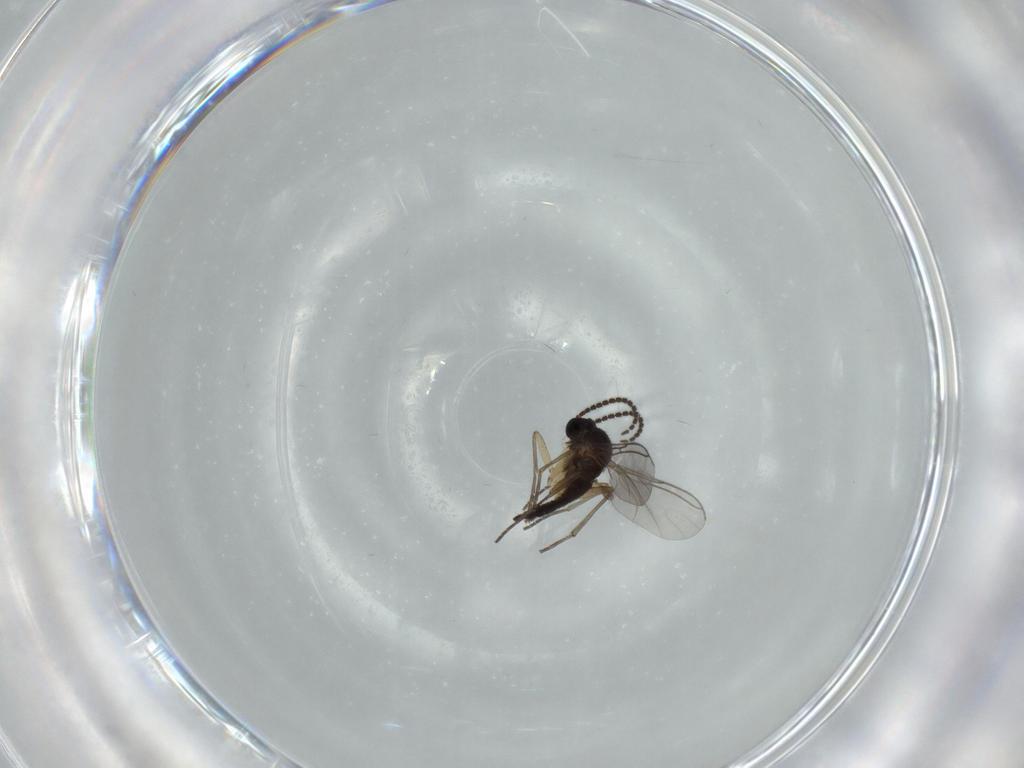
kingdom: Animalia
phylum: Arthropoda
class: Insecta
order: Diptera
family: Sciaridae
